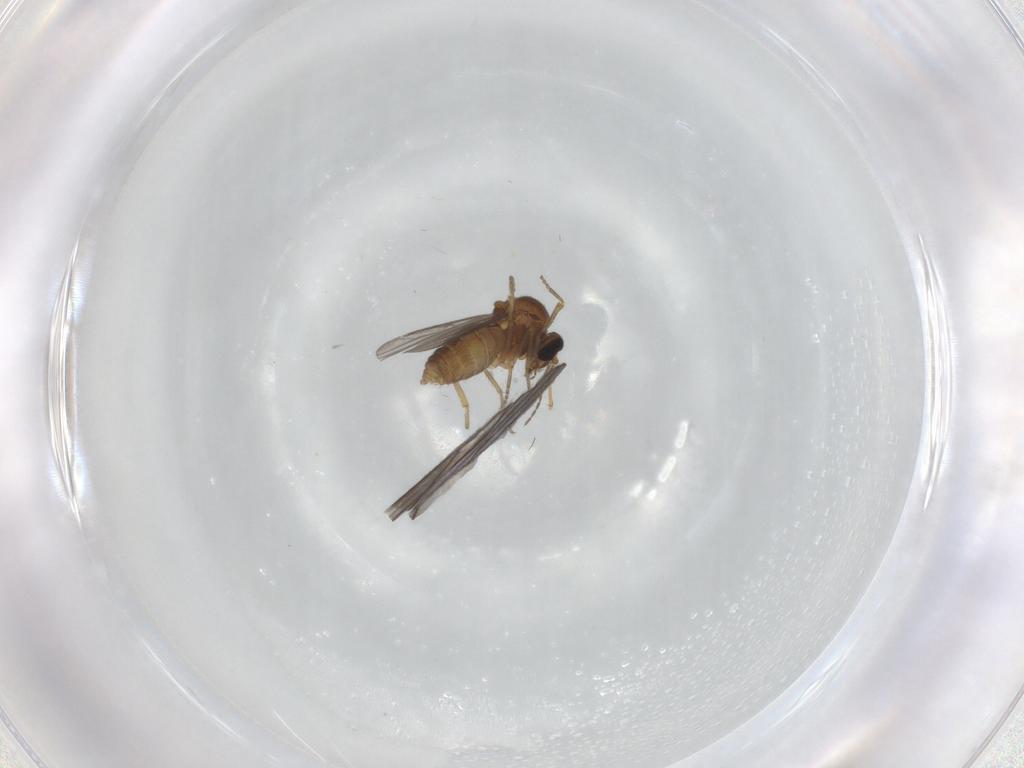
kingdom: Animalia
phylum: Arthropoda
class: Insecta
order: Diptera
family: Ceratopogonidae
